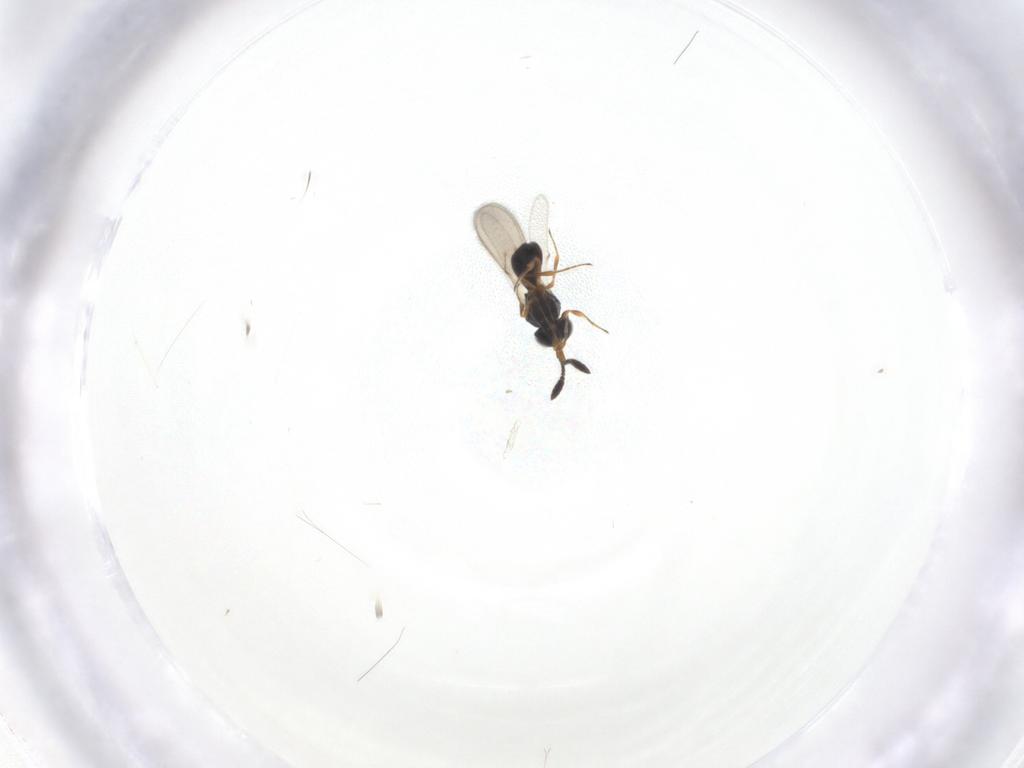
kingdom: Animalia
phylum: Arthropoda
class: Insecta
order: Hymenoptera
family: Scelionidae
